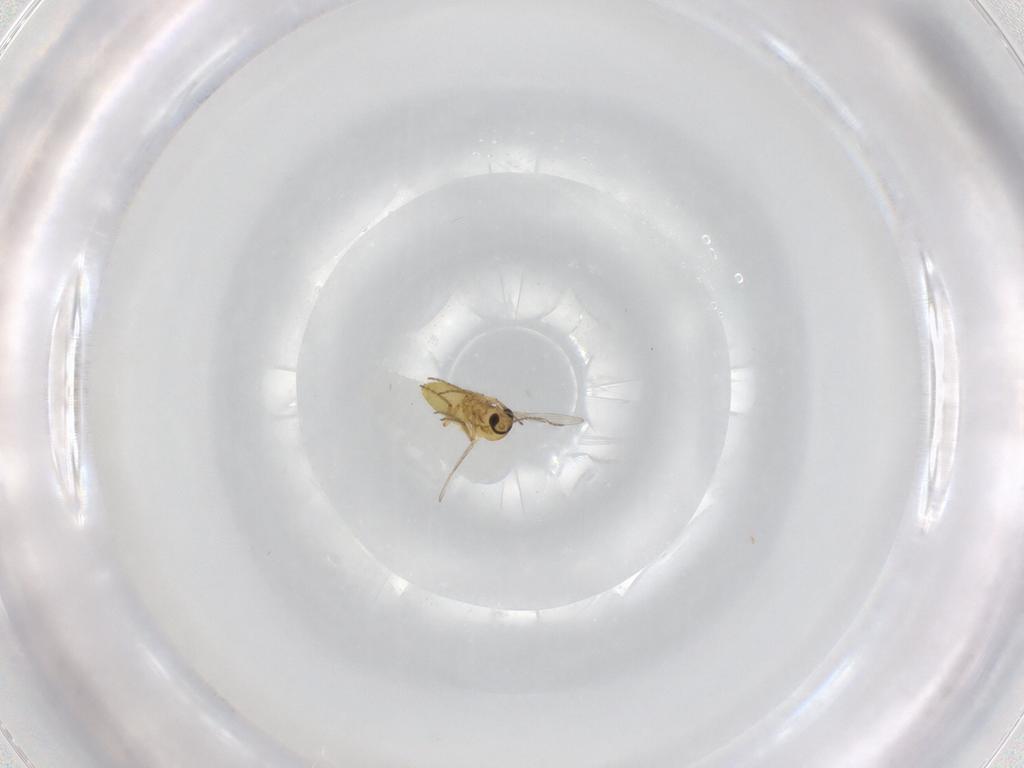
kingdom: Animalia
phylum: Arthropoda
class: Insecta
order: Diptera
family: Ceratopogonidae
